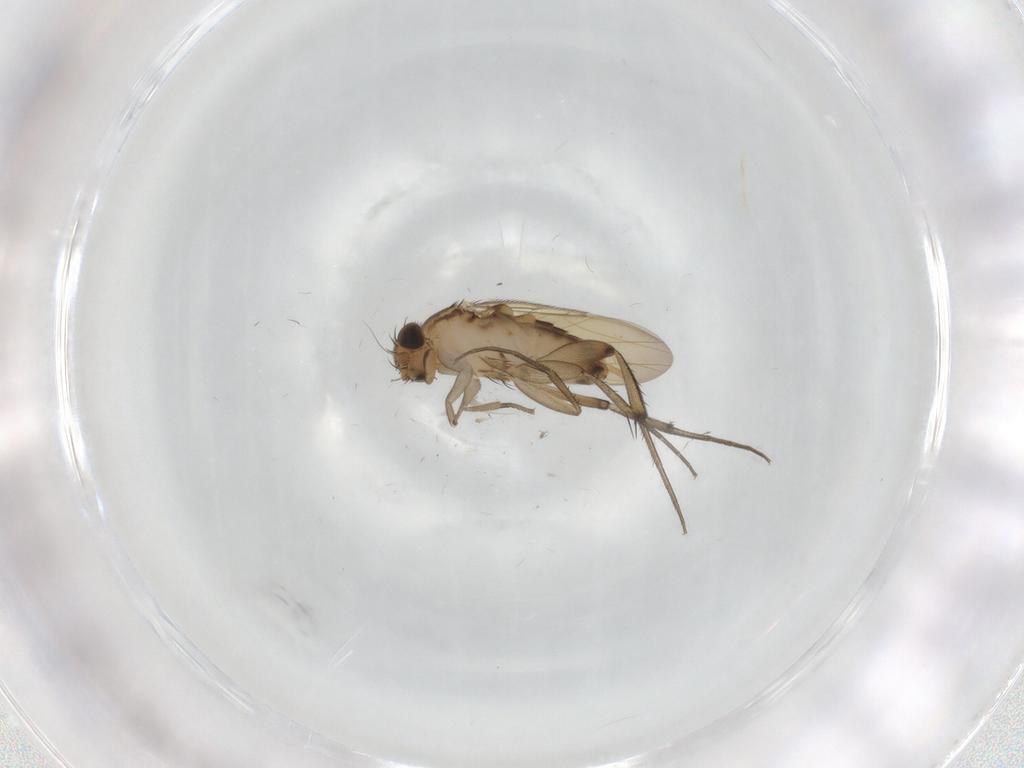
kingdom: Animalia
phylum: Arthropoda
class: Insecta
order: Diptera
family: Phoridae
